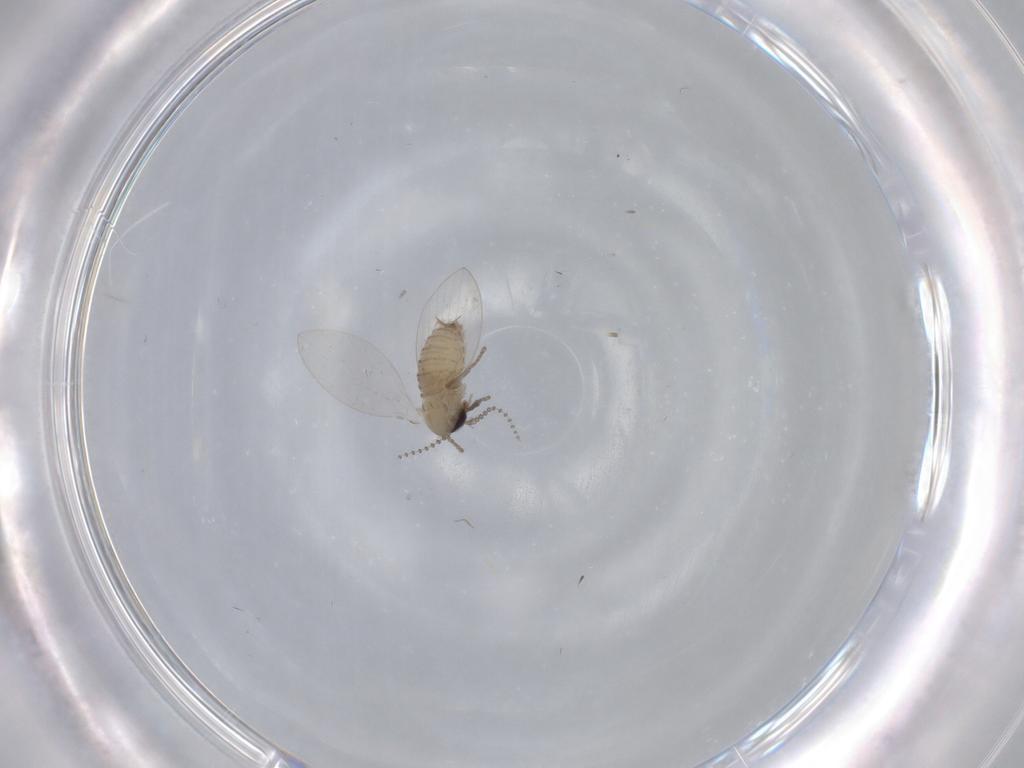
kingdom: Animalia
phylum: Arthropoda
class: Insecta
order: Diptera
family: Psychodidae
